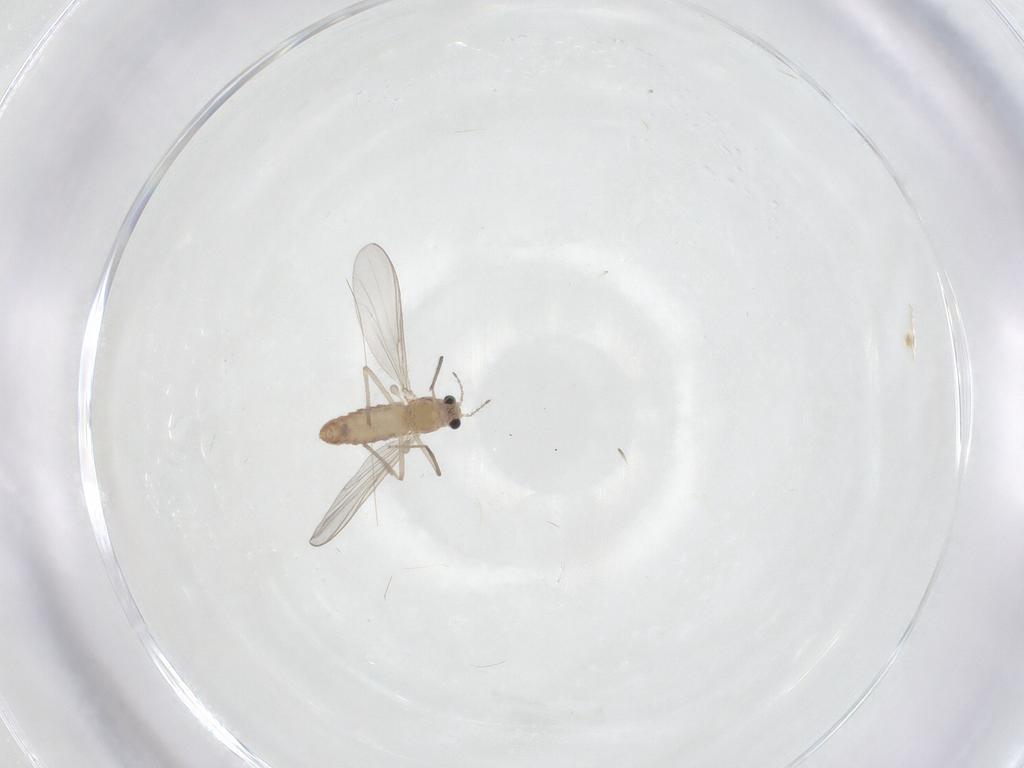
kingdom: Animalia
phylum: Arthropoda
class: Insecta
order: Diptera
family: Chironomidae
